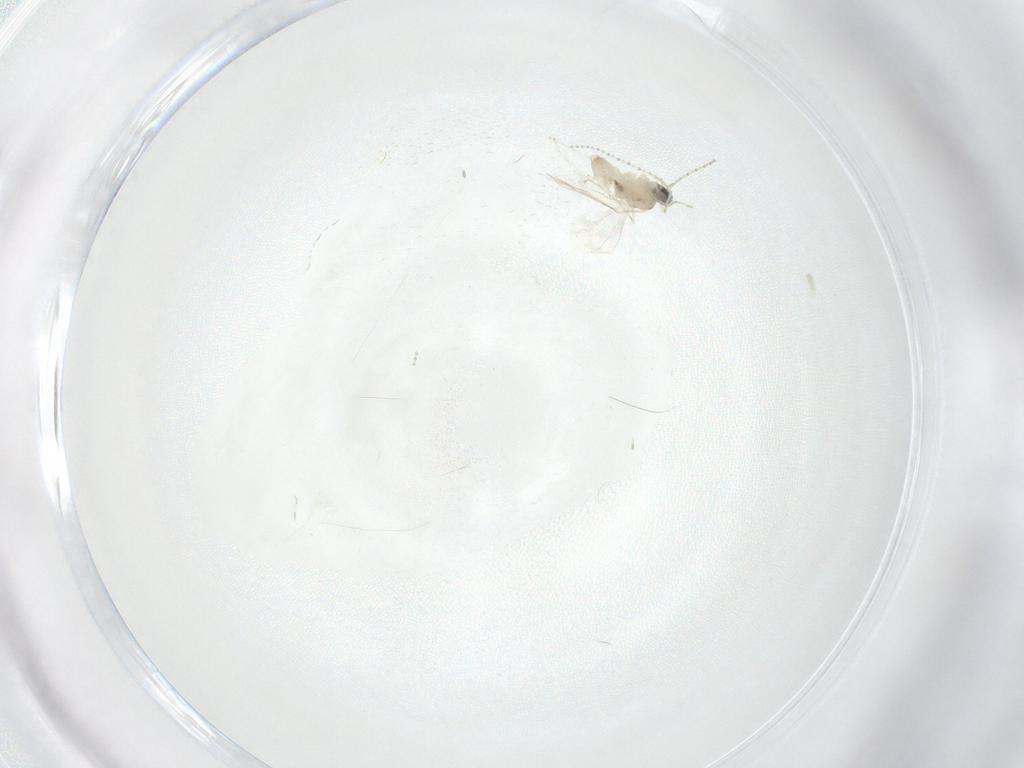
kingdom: Animalia
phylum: Arthropoda
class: Insecta
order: Diptera
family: Cecidomyiidae
